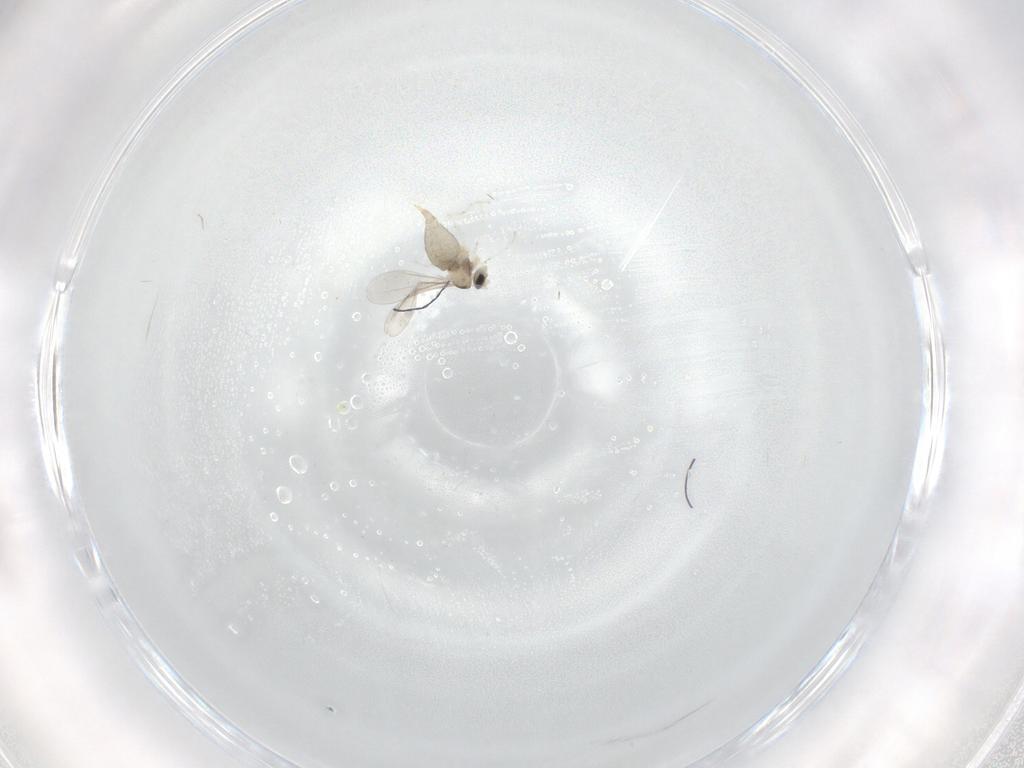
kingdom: Animalia
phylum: Arthropoda
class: Insecta
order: Diptera
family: Cecidomyiidae
